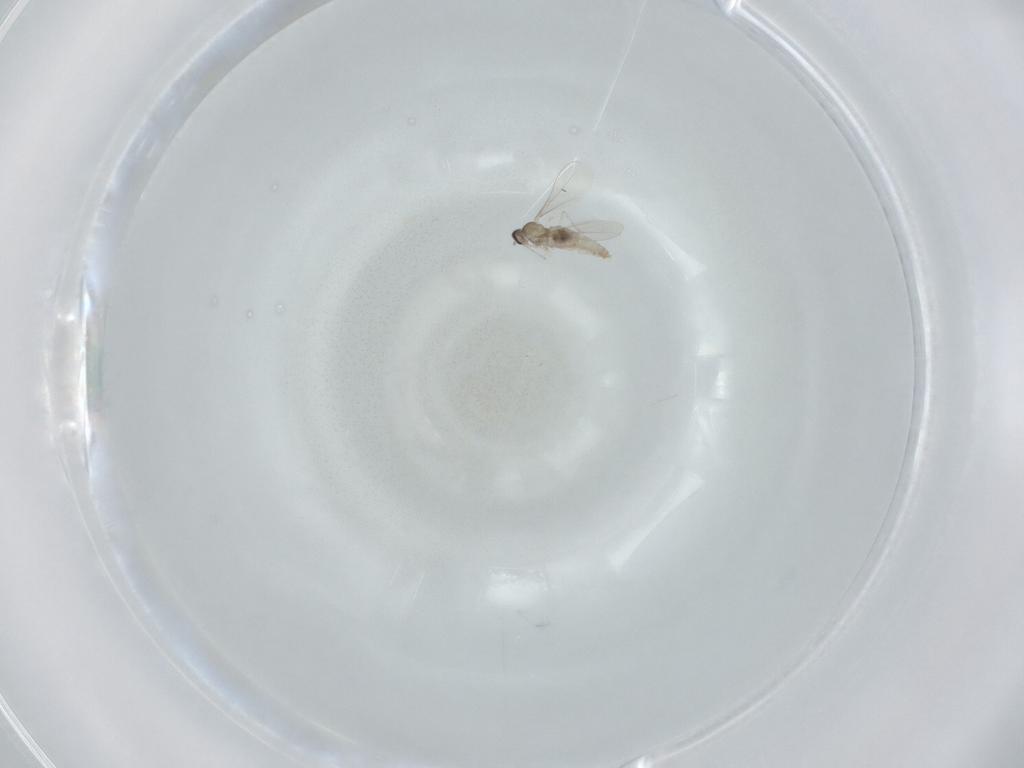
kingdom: Animalia
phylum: Arthropoda
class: Insecta
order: Diptera
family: Cecidomyiidae
